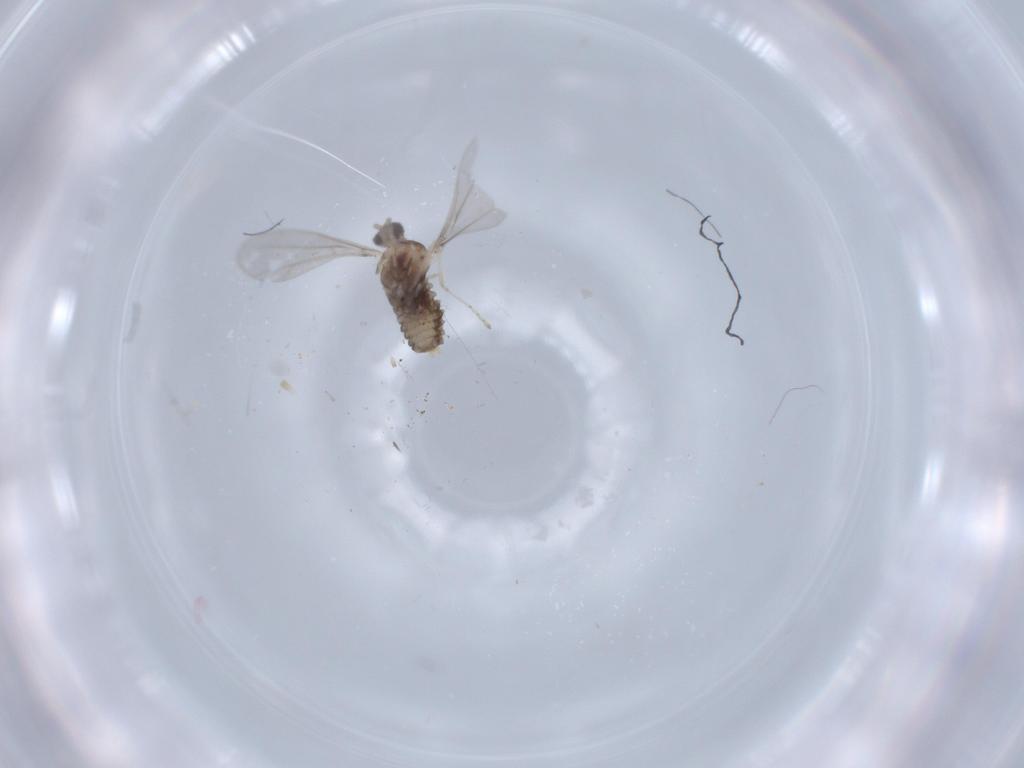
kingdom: Animalia
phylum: Arthropoda
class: Insecta
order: Diptera
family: Cecidomyiidae
